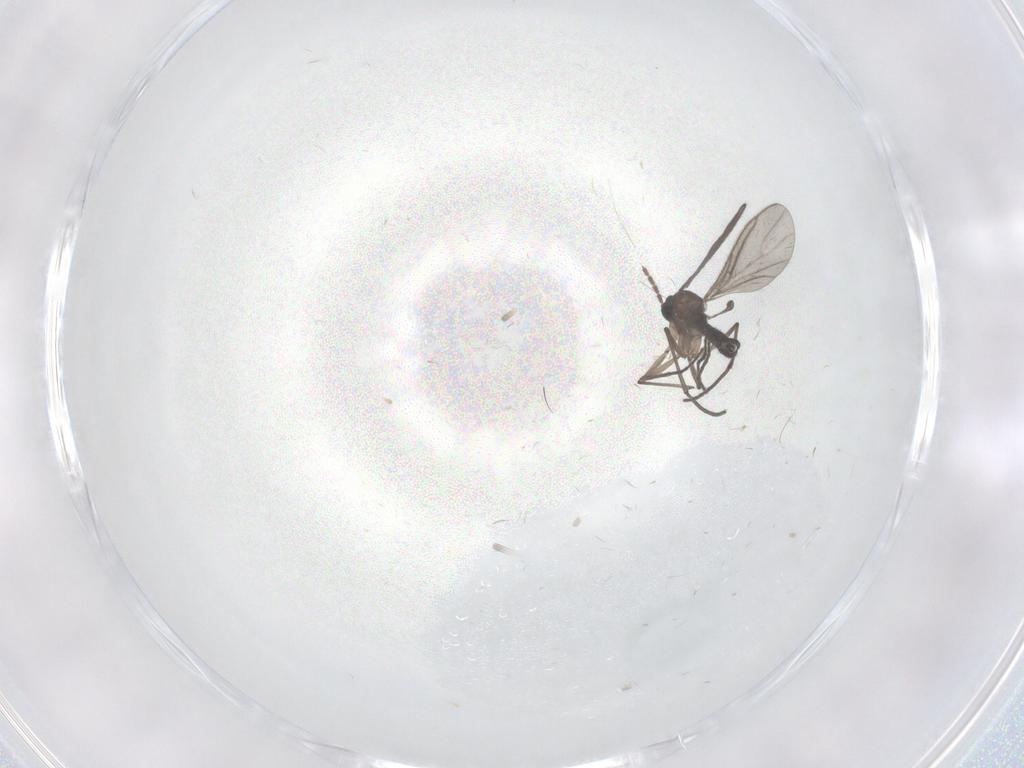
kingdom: Animalia
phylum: Arthropoda
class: Insecta
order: Diptera
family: Sciaridae
